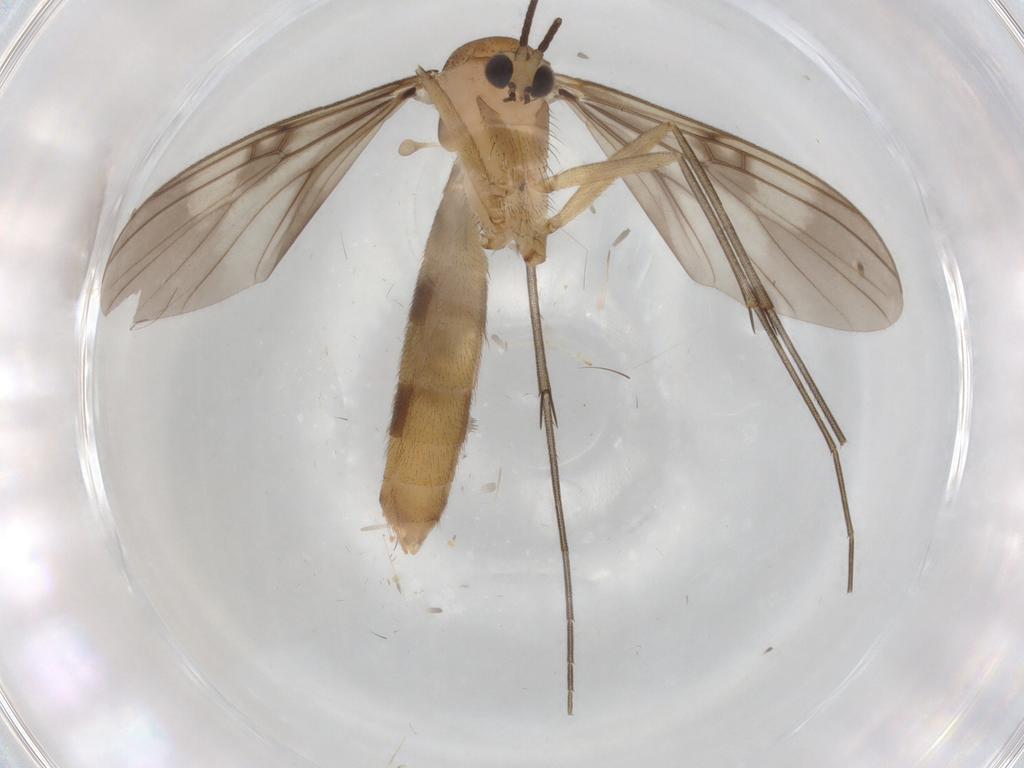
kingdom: Animalia
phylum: Arthropoda
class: Insecta
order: Diptera
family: Mycetophilidae
